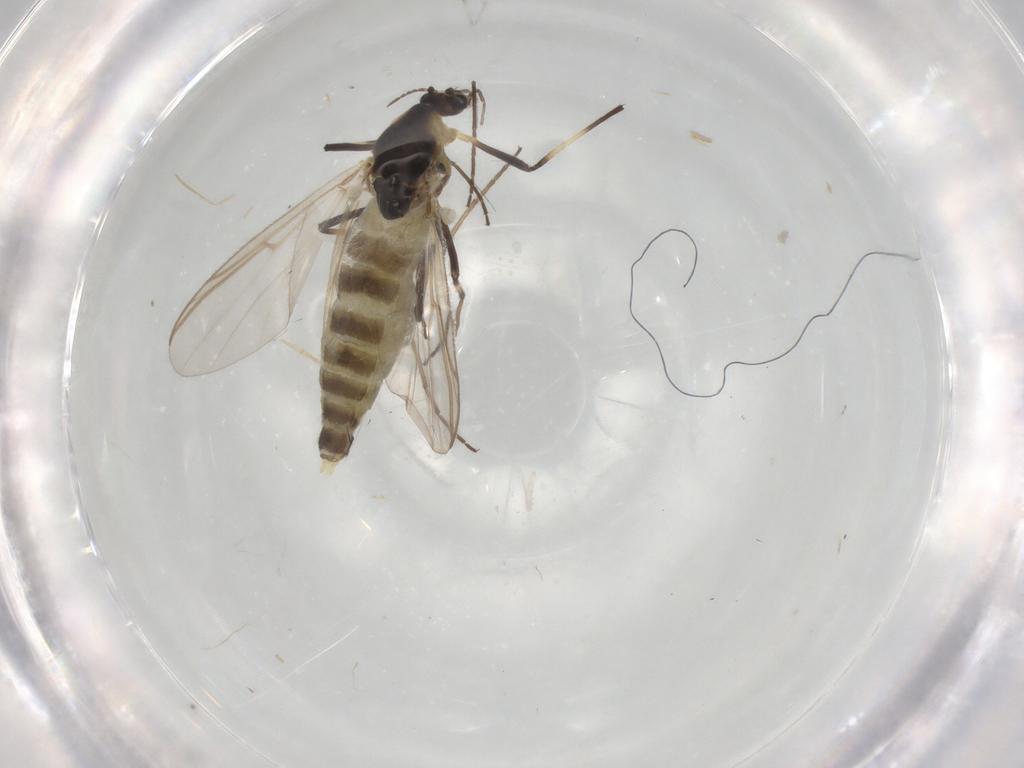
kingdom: Animalia
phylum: Arthropoda
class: Insecta
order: Diptera
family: Chironomidae
